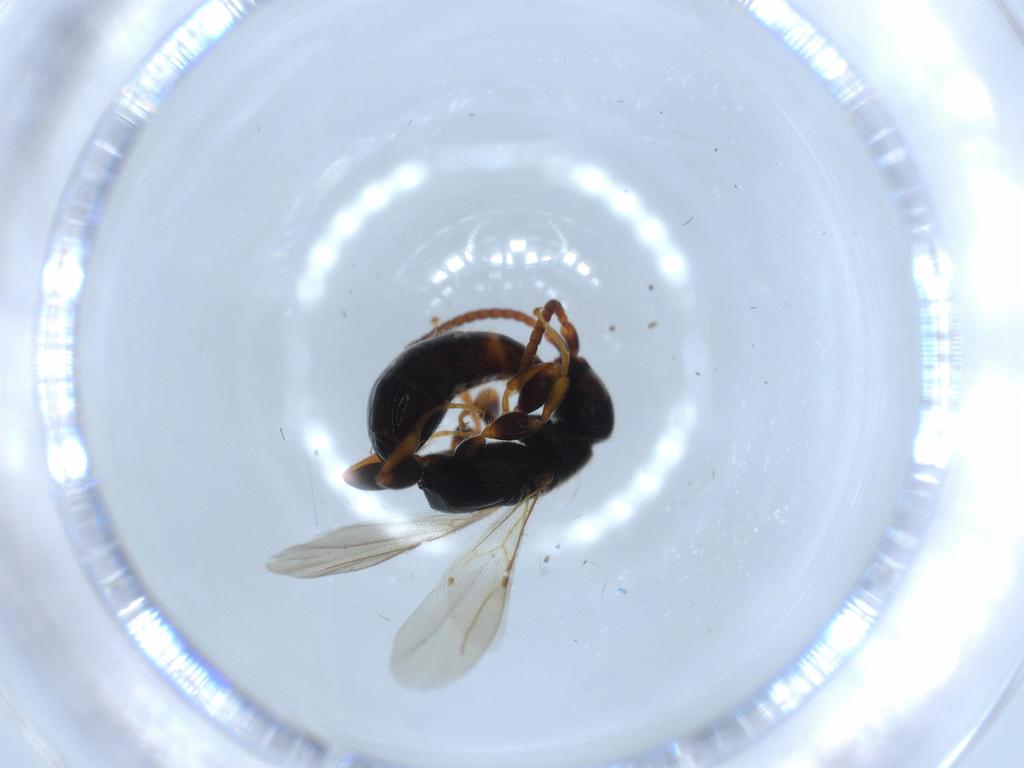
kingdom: Animalia
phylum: Arthropoda
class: Insecta
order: Hymenoptera
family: Bethylidae
